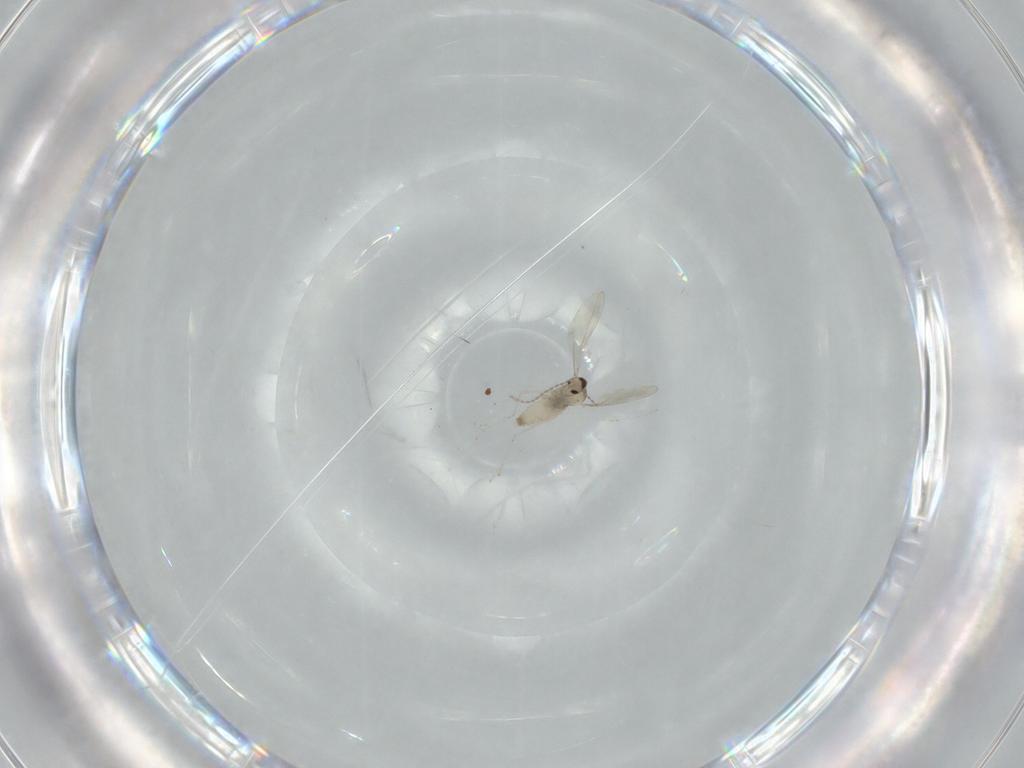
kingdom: Animalia
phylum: Arthropoda
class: Insecta
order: Diptera
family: Cecidomyiidae
